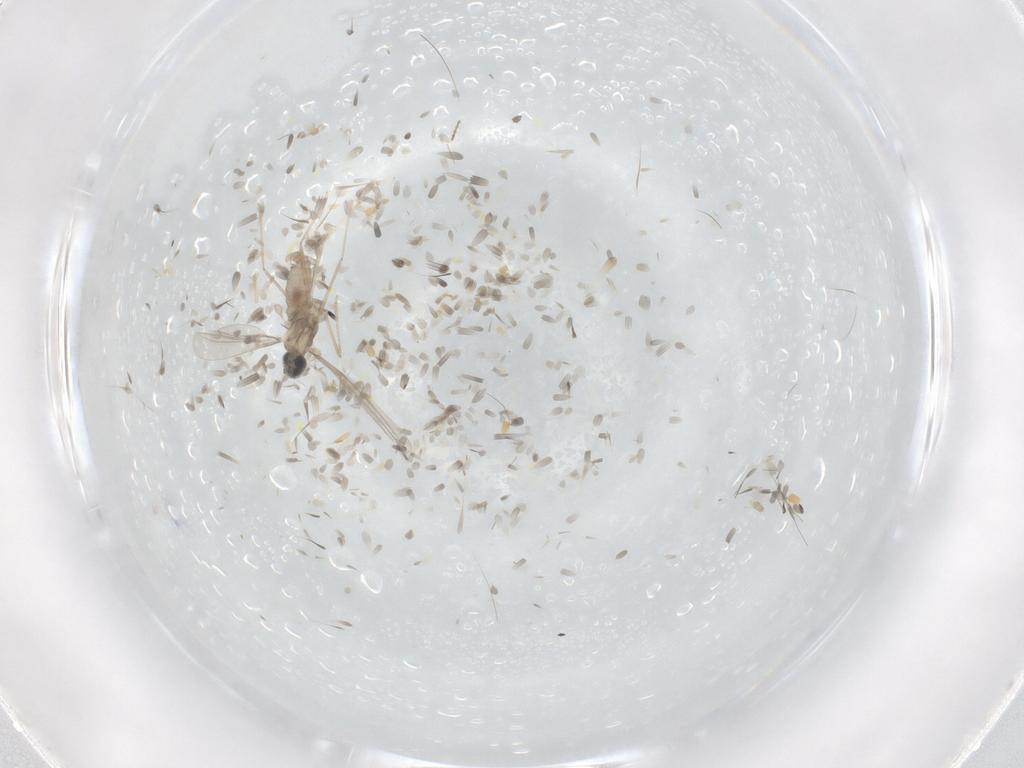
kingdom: Animalia
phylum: Arthropoda
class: Insecta
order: Diptera
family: Chironomidae
